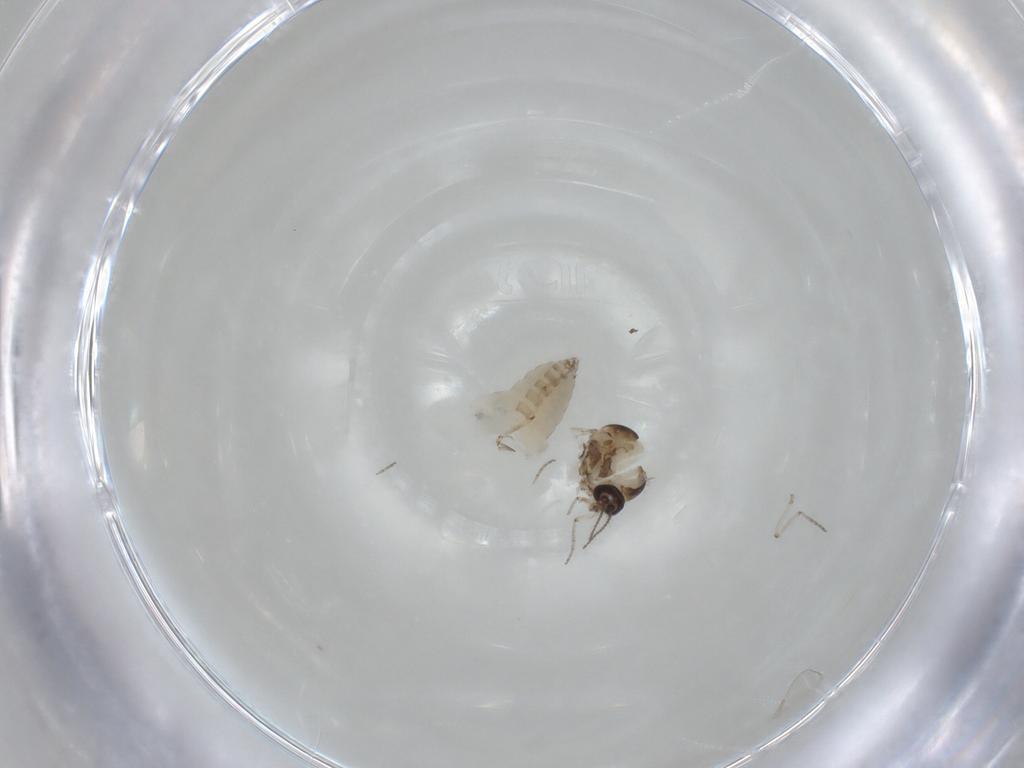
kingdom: Animalia
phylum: Arthropoda
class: Insecta
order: Diptera
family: Ceratopogonidae
